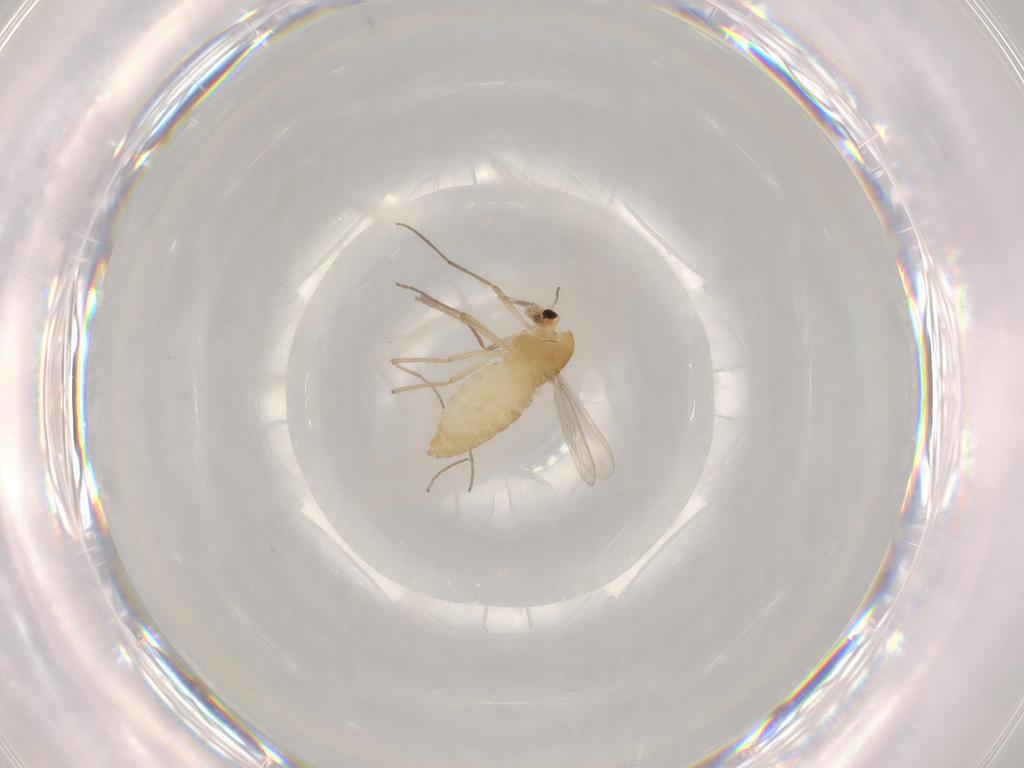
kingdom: Animalia
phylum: Arthropoda
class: Insecta
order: Diptera
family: Chironomidae
